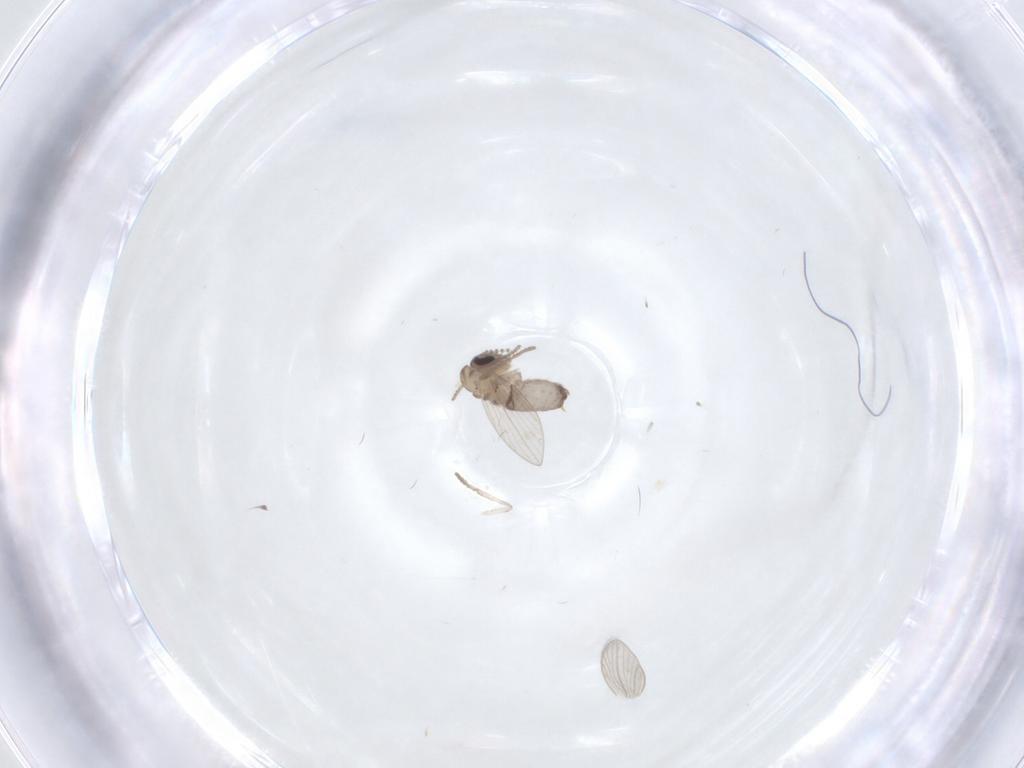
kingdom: Animalia
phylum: Arthropoda
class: Insecta
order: Diptera
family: Psychodidae
